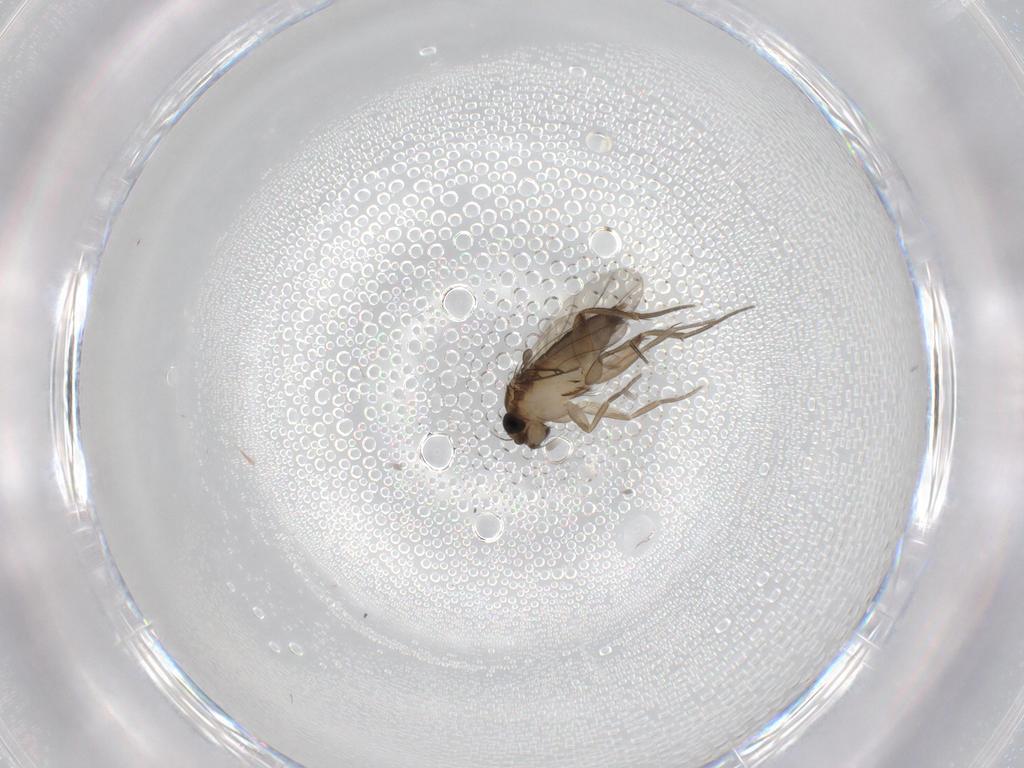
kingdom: Animalia
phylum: Arthropoda
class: Insecta
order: Diptera
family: Phoridae
